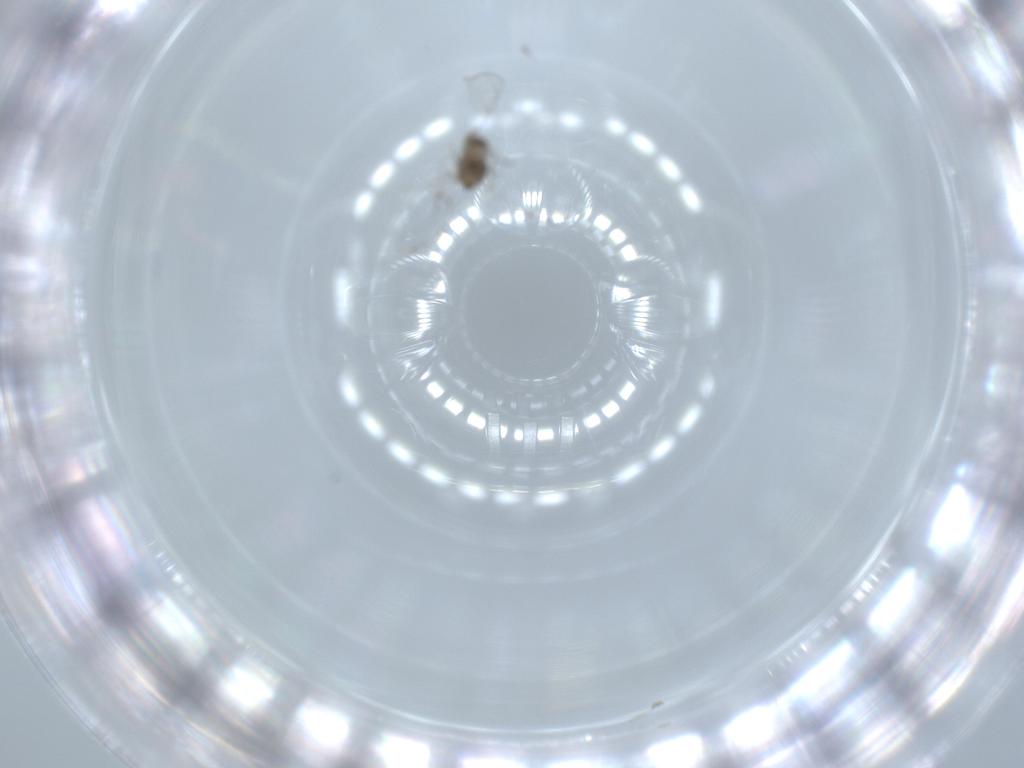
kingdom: Animalia
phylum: Arthropoda
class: Insecta
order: Diptera
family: Cecidomyiidae
